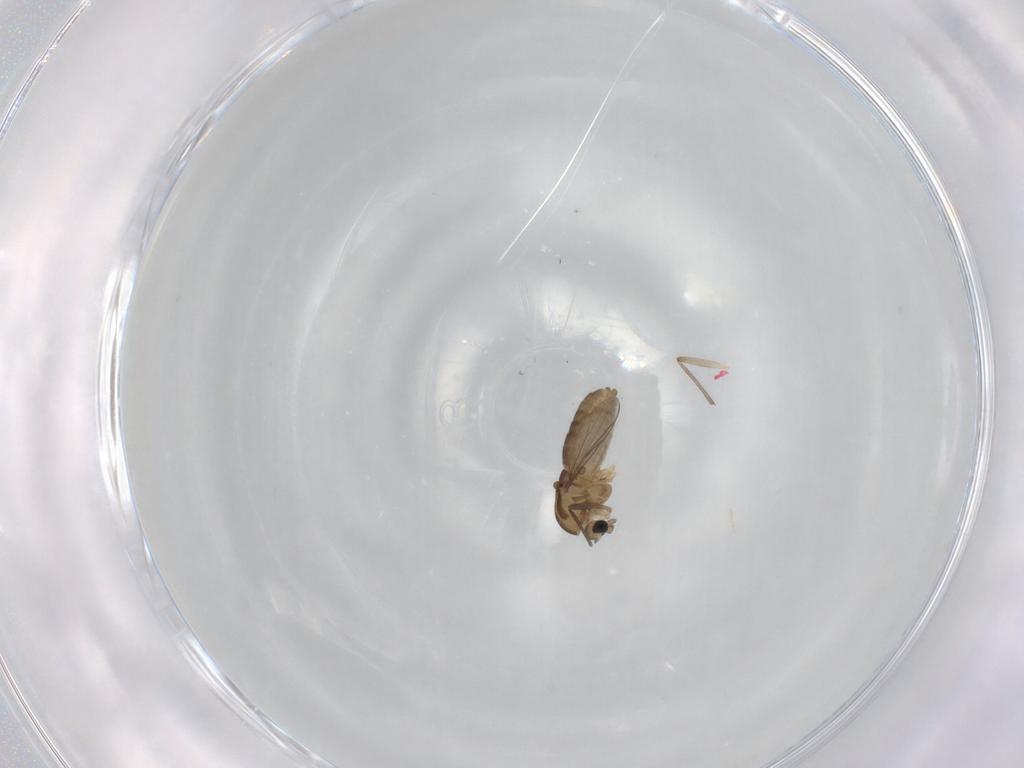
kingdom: Animalia
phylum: Arthropoda
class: Insecta
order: Diptera
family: Chironomidae
